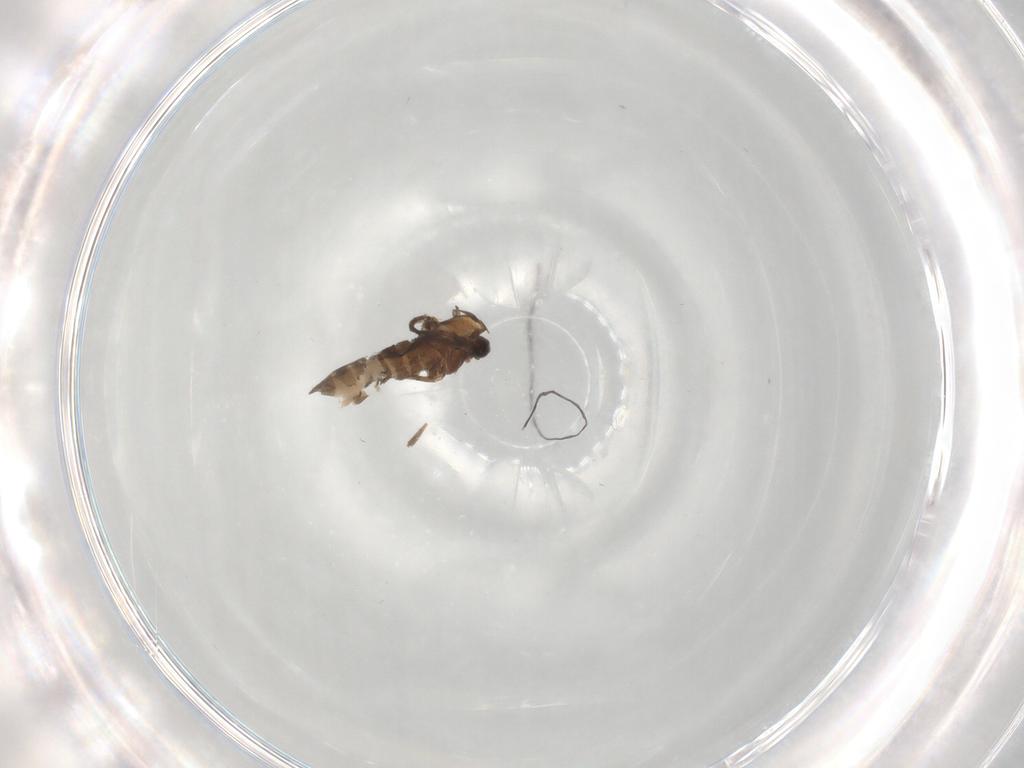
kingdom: Animalia
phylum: Arthropoda
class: Insecta
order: Diptera
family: Chironomidae
